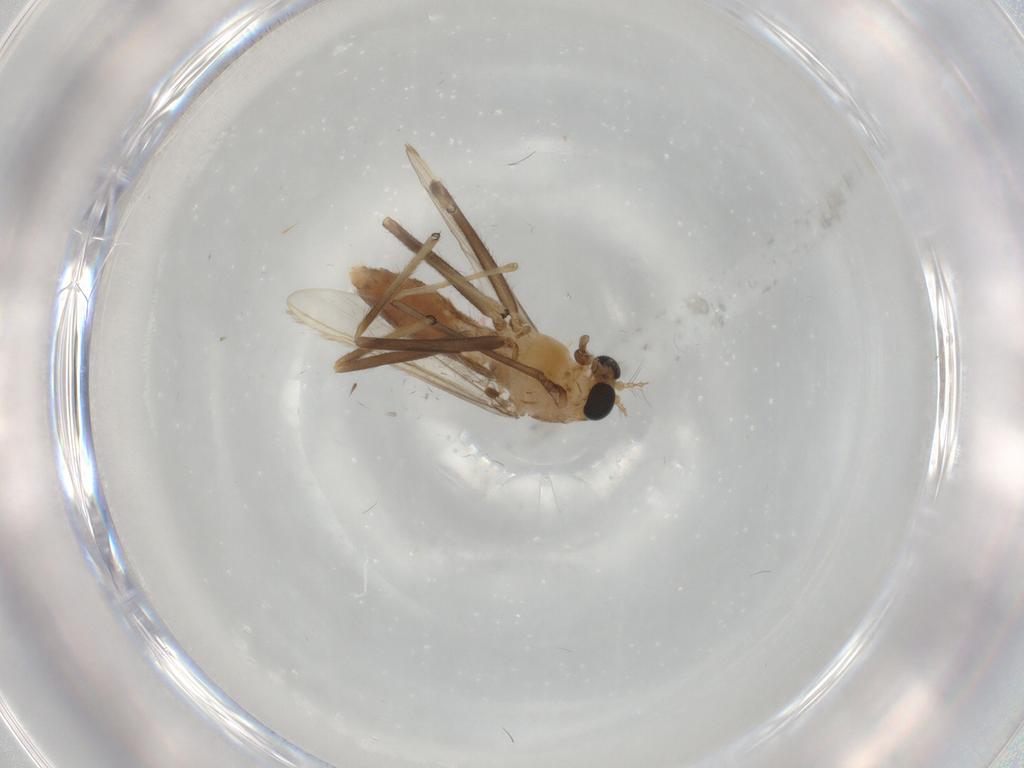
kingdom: Animalia
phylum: Arthropoda
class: Insecta
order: Diptera
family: Chironomidae
